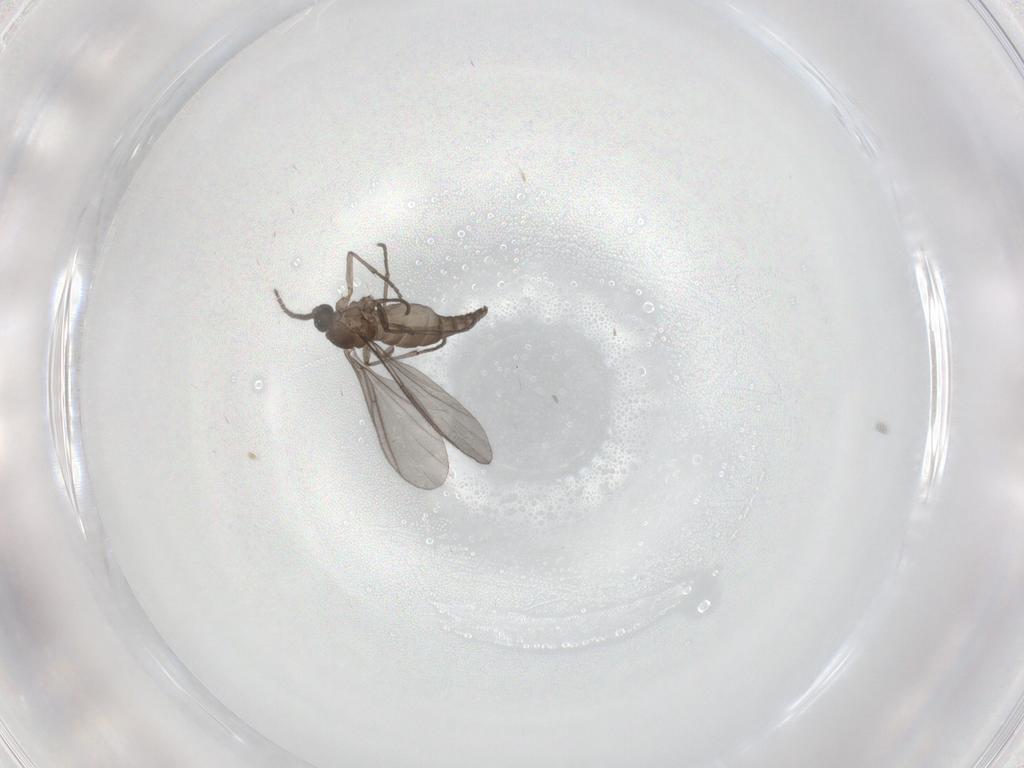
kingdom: Animalia
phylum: Arthropoda
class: Insecta
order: Diptera
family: Sciaridae
